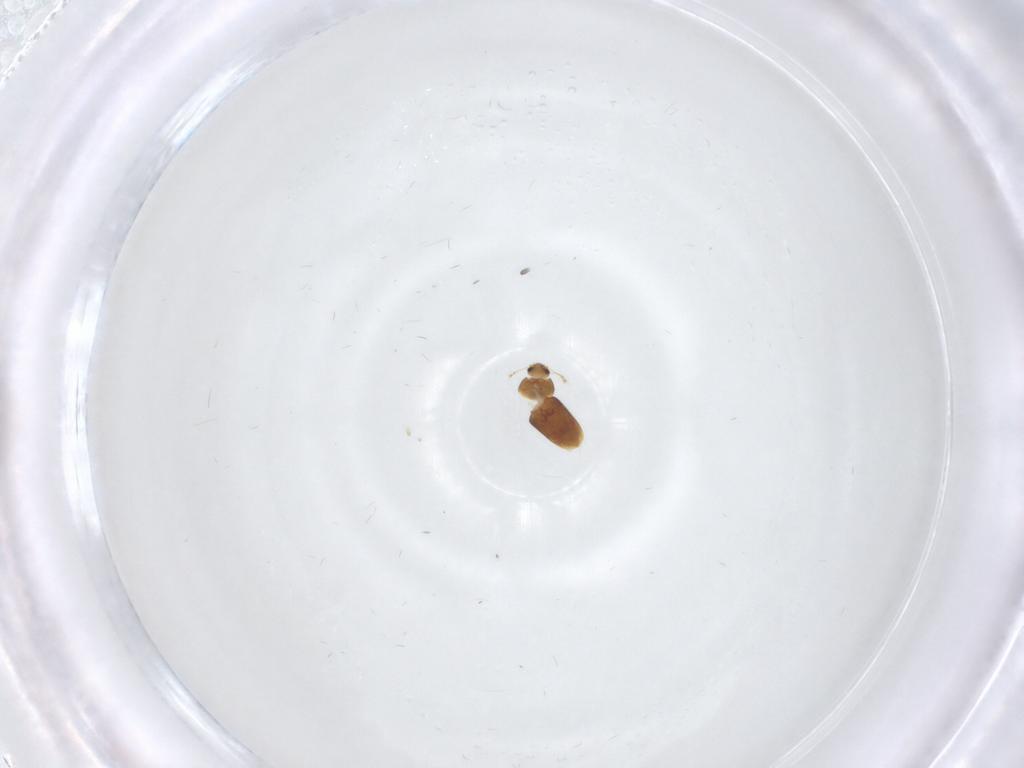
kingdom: Animalia
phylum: Arthropoda
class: Insecta
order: Coleoptera
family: Ptiliidae
